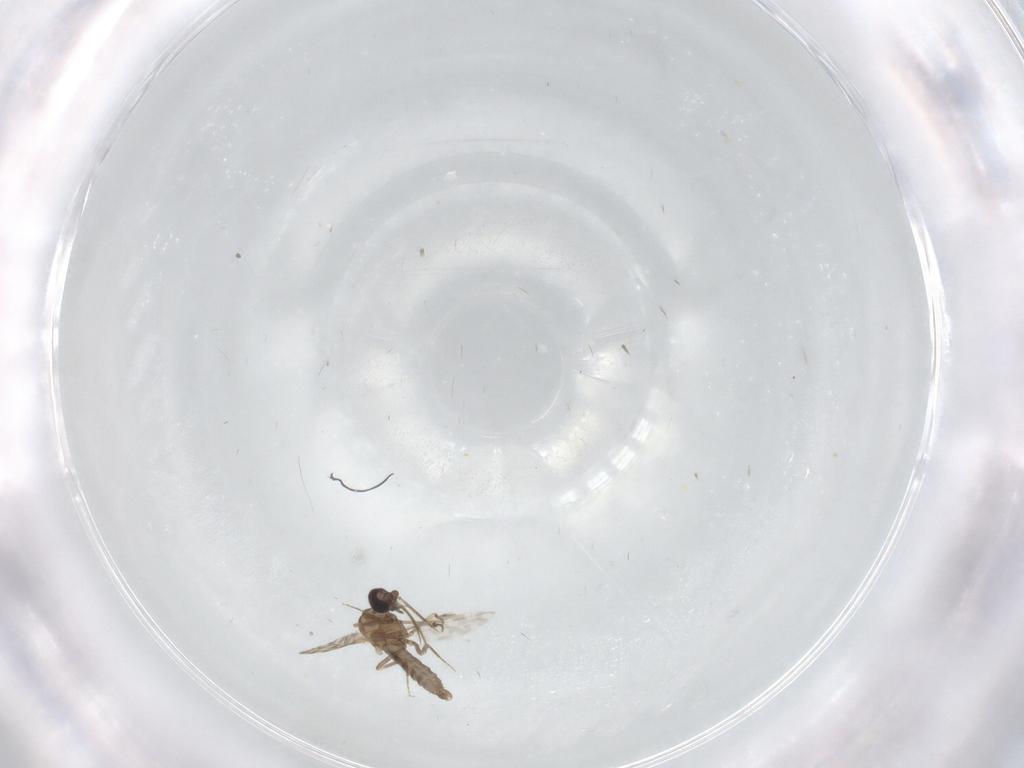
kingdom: Animalia
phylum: Arthropoda
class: Insecta
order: Diptera
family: Ceratopogonidae
